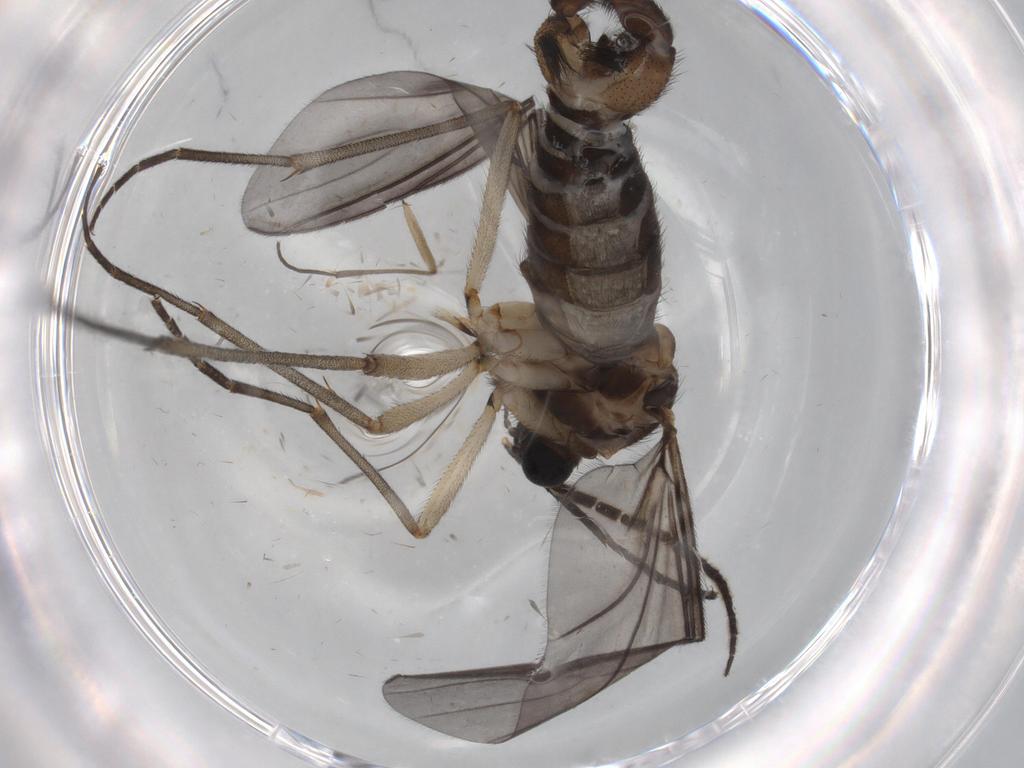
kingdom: Animalia
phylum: Arthropoda
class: Insecta
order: Diptera
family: Sciaridae
